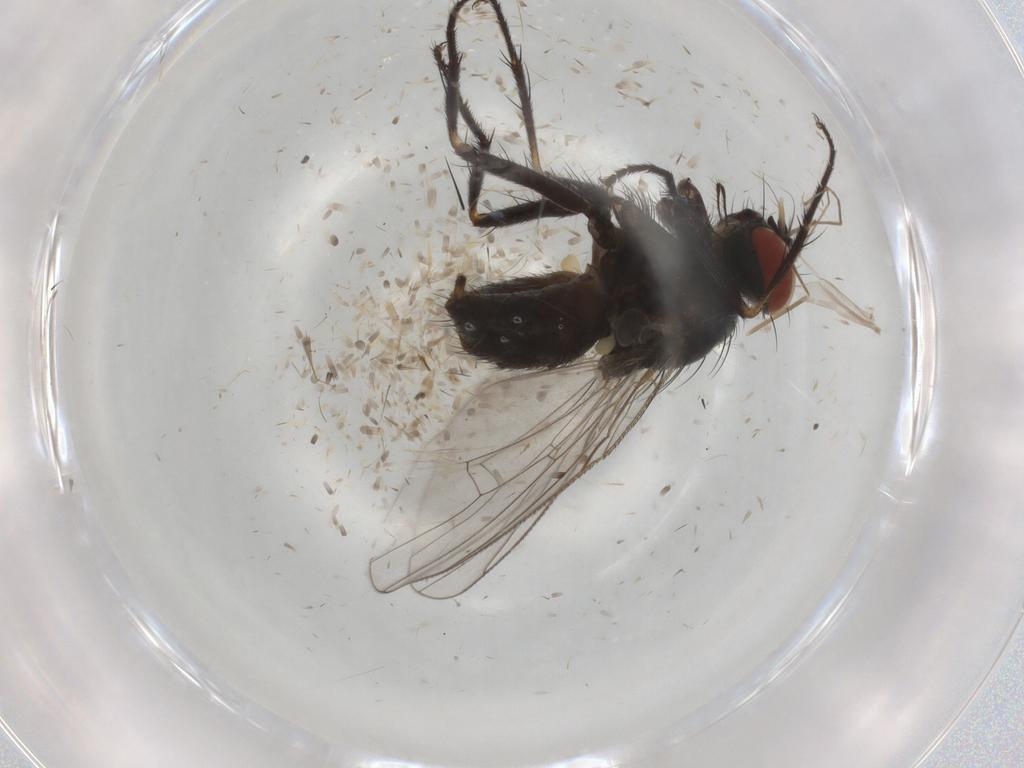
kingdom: Animalia
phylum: Arthropoda
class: Insecta
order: Diptera
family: Muscidae
